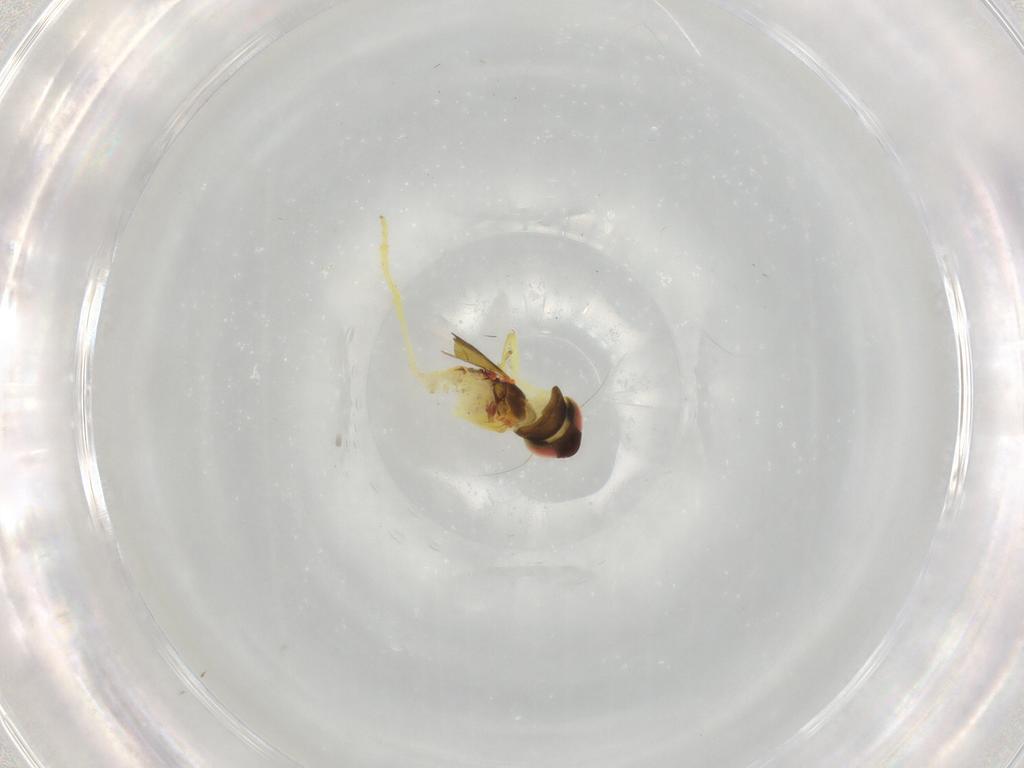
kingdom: Animalia
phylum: Arthropoda
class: Insecta
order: Hemiptera
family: Cicadellidae
